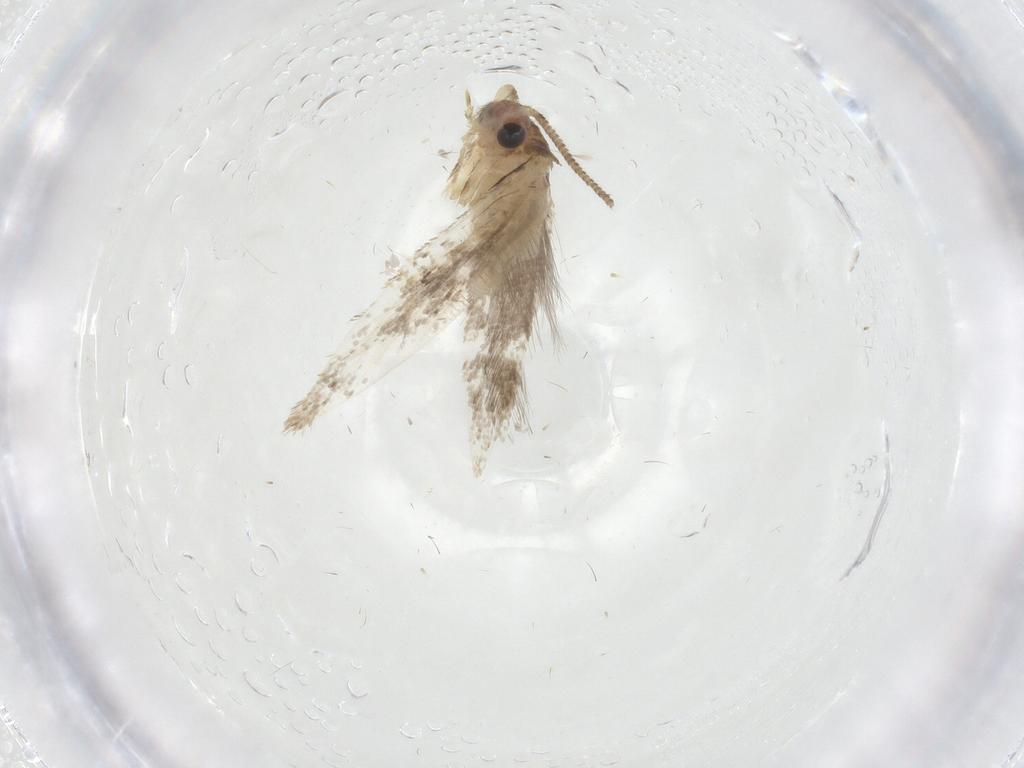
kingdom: Animalia
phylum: Arthropoda
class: Insecta
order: Lepidoptera
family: Tineidae
